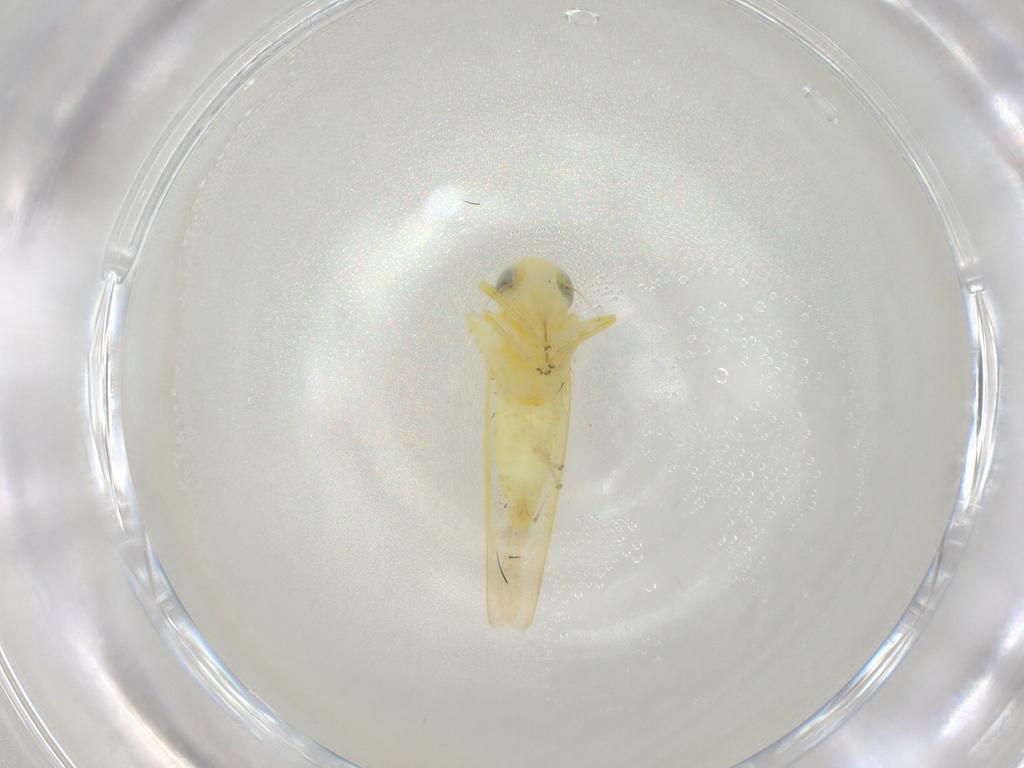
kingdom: Animalia
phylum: Arthropoda
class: Insecta
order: Hemiptera
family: Cicadellidae
